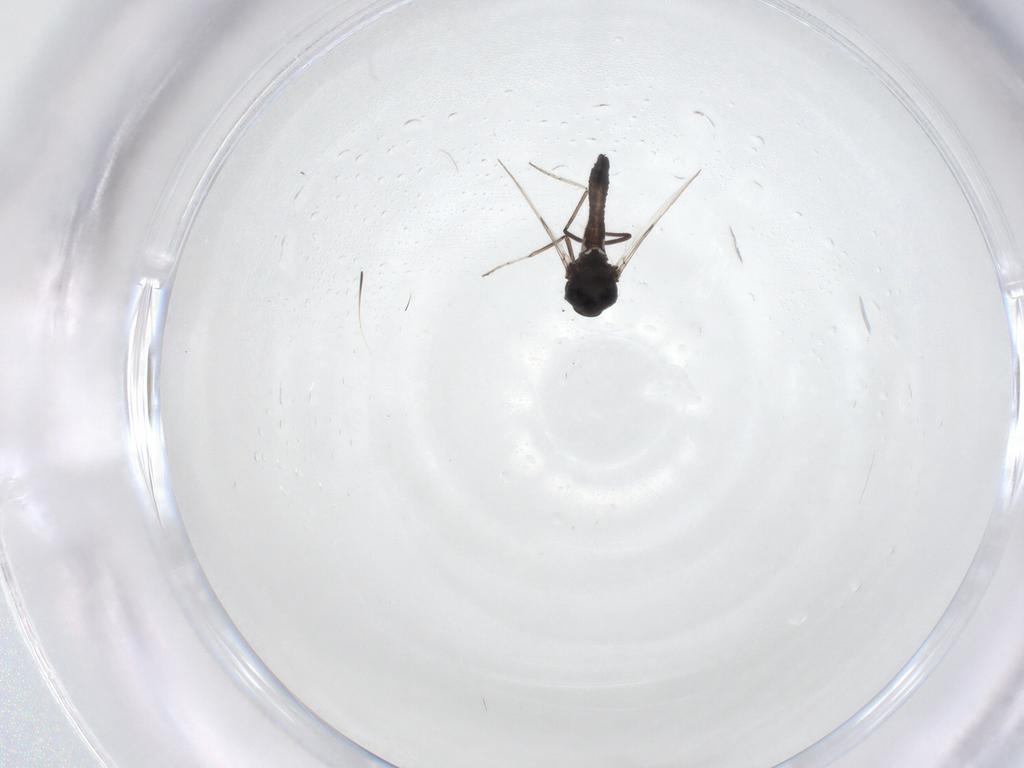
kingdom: Animalia
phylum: Arthropoda
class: Insecta
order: Diptera
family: Ceratopogonidae
